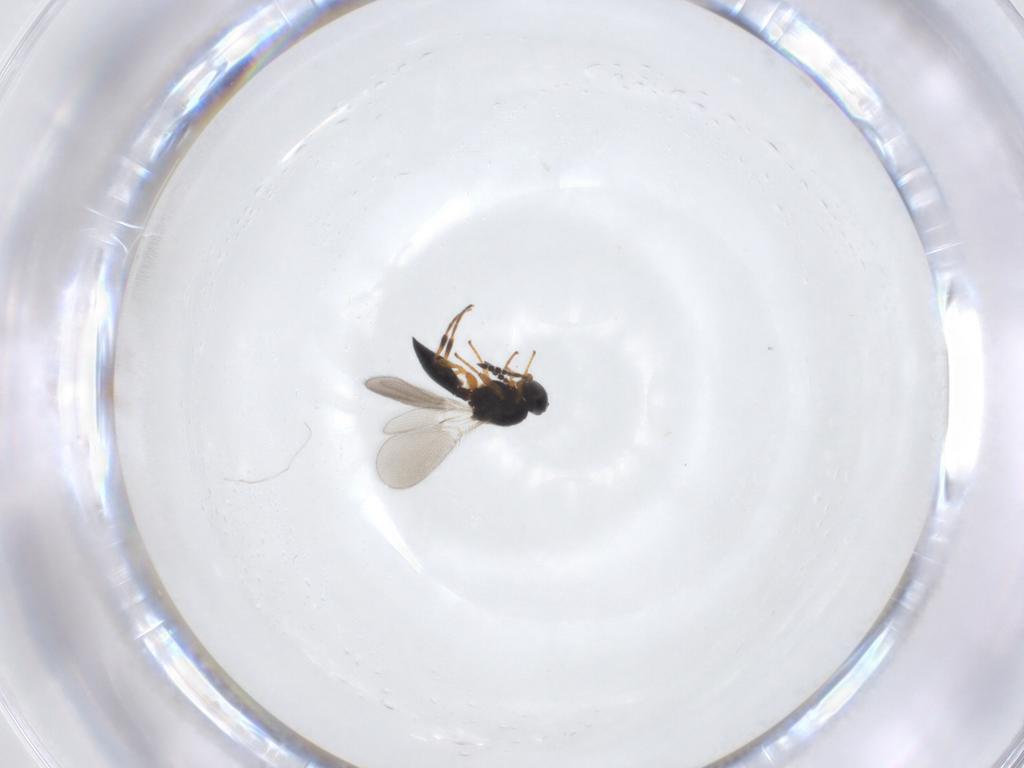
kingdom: Animalia
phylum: Arthropoda
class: Insecta
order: Hymenoptera
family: Platygastridae
